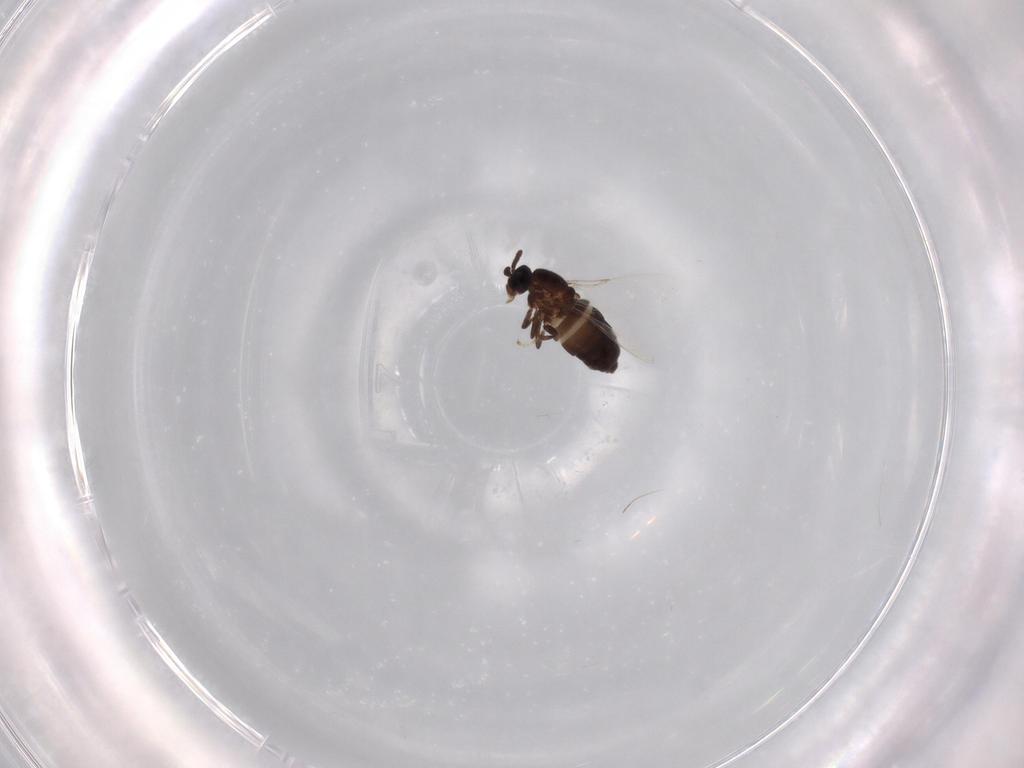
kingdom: Animalia
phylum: Arthropoda
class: Insecta
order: Diptera
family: Scatopsidae
